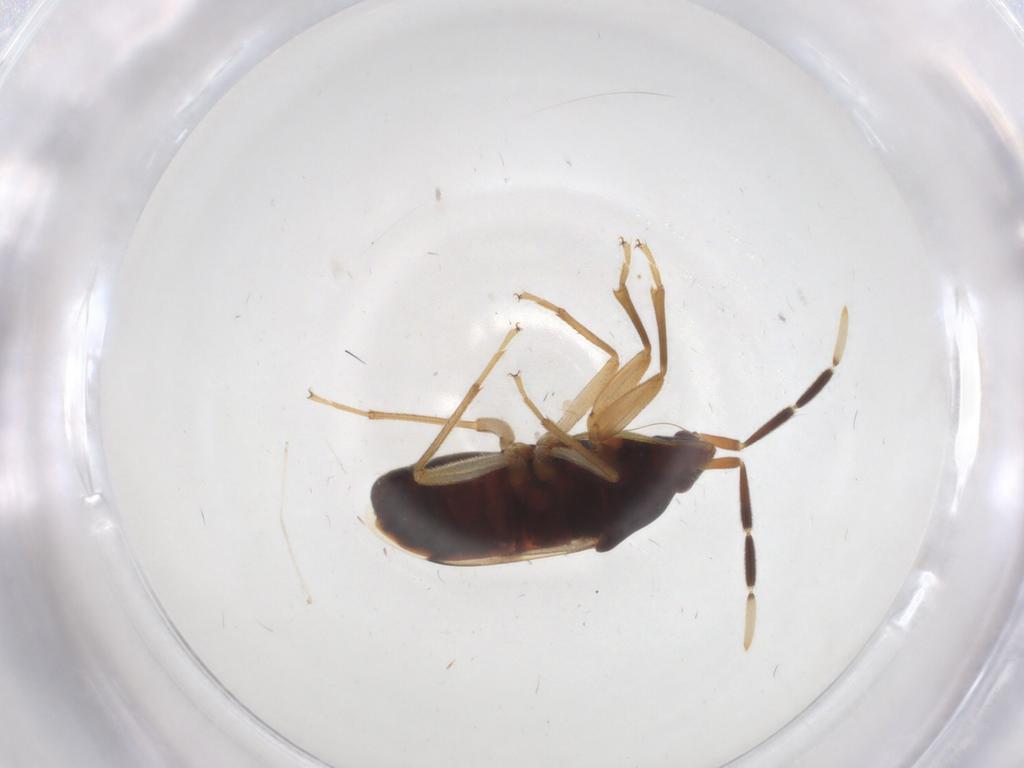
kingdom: Animalia
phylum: Arthropoda
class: Insecta
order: Hemiptera
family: Rhyparochromidae
